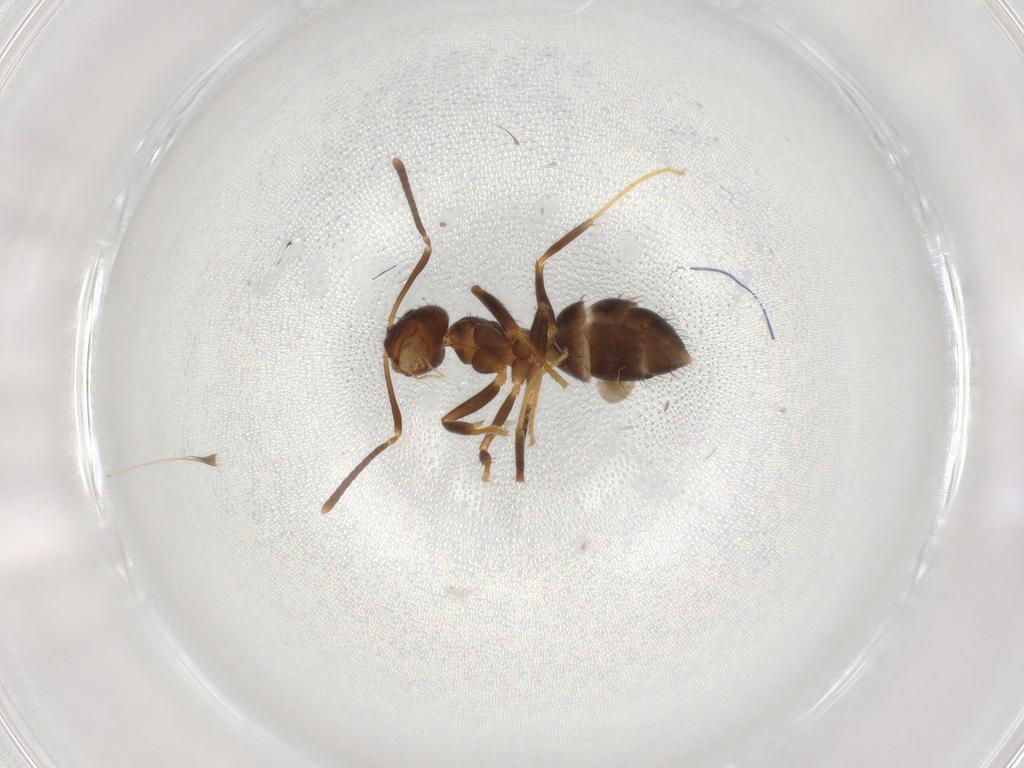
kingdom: Animalia
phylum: Arthropoda
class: Insecta
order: Hymenoptera
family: Formicidae
